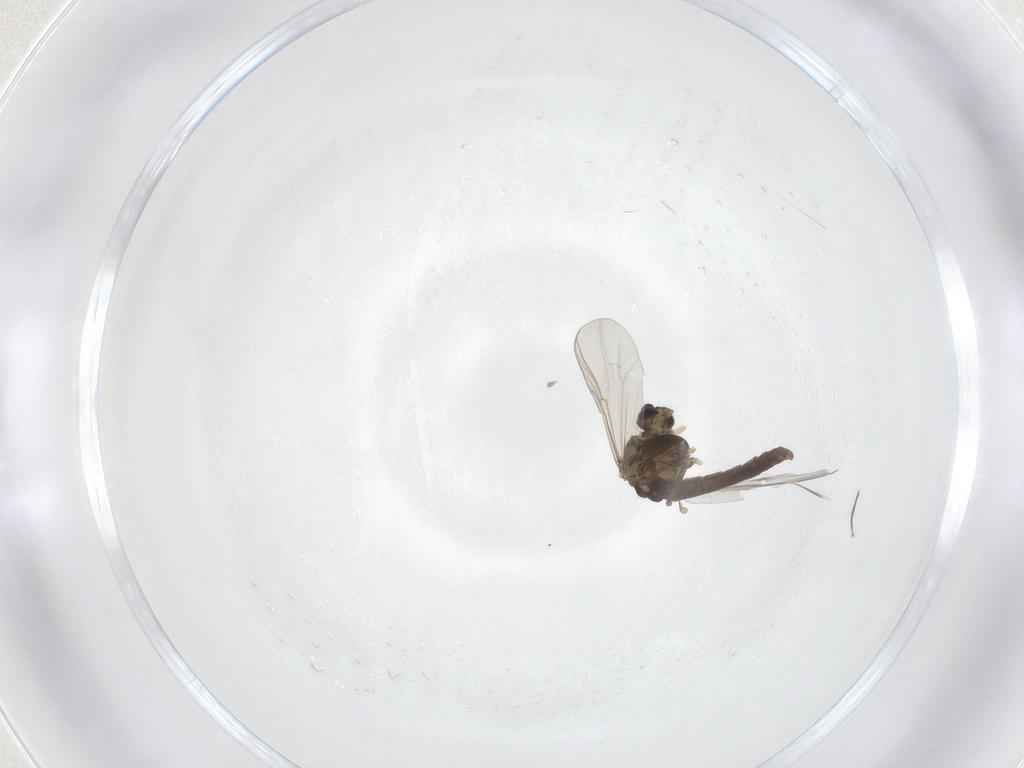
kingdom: Animalia
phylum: Arthropoda
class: Insecta
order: Diptera
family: Chironomidae
